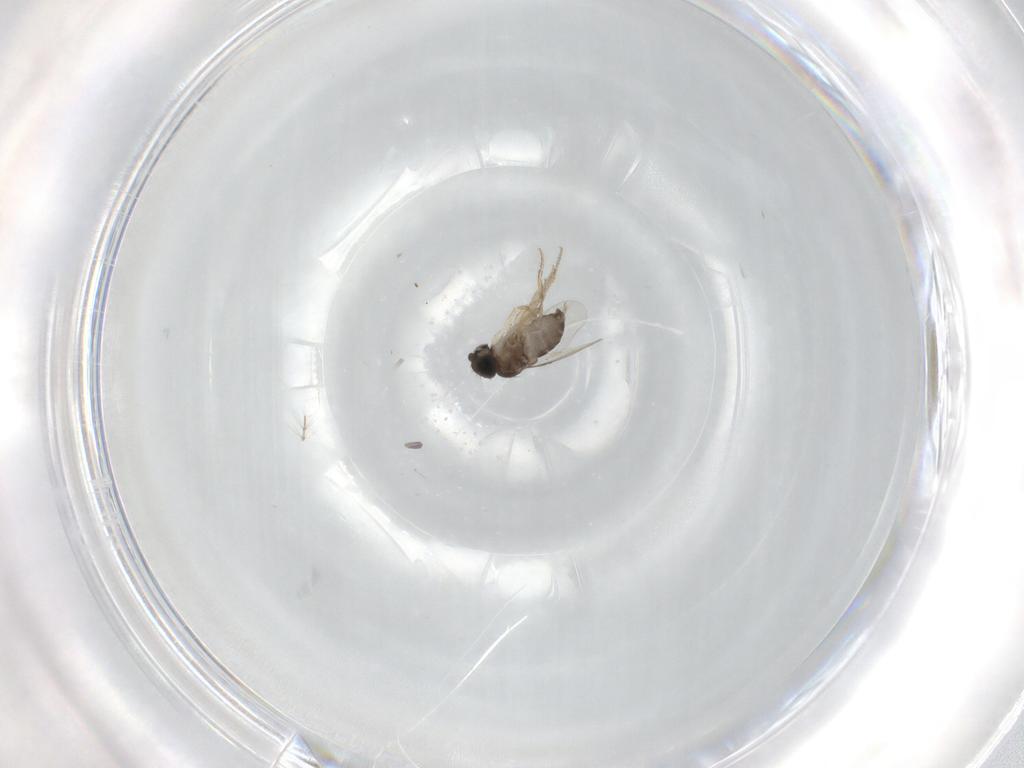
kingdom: Animalia
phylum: Arthropoda
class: Insecta
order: Diptera
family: Phoridae
